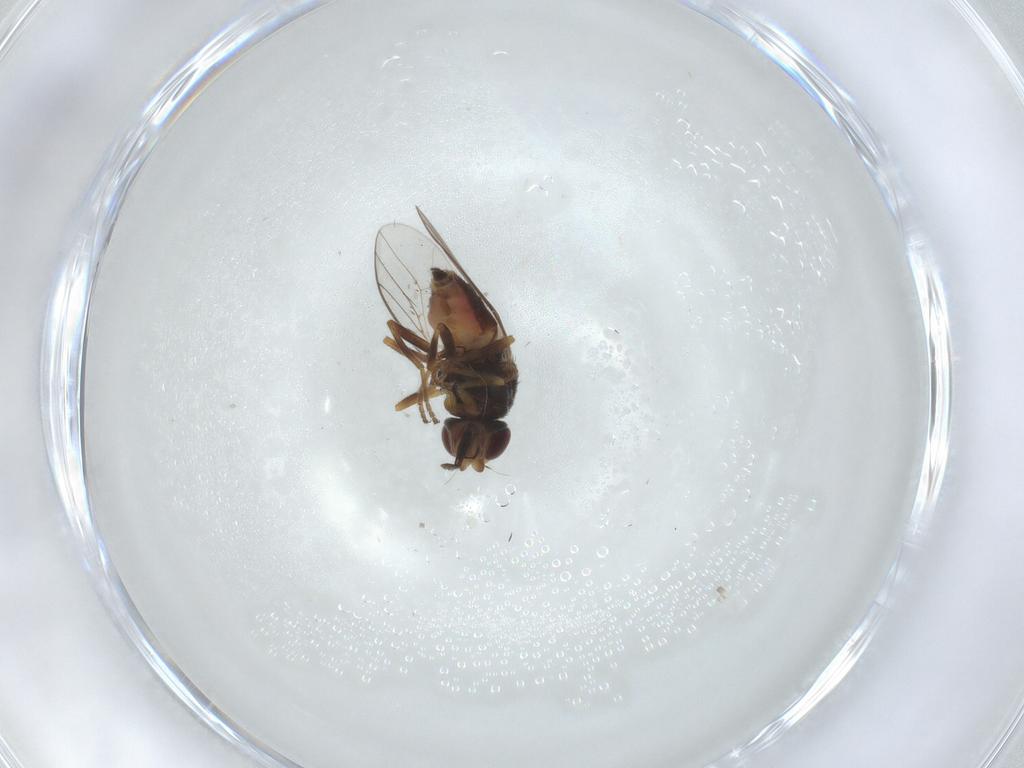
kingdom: Animalia
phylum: Arthropoda
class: Insecta
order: Diptera
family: Chloropidae
